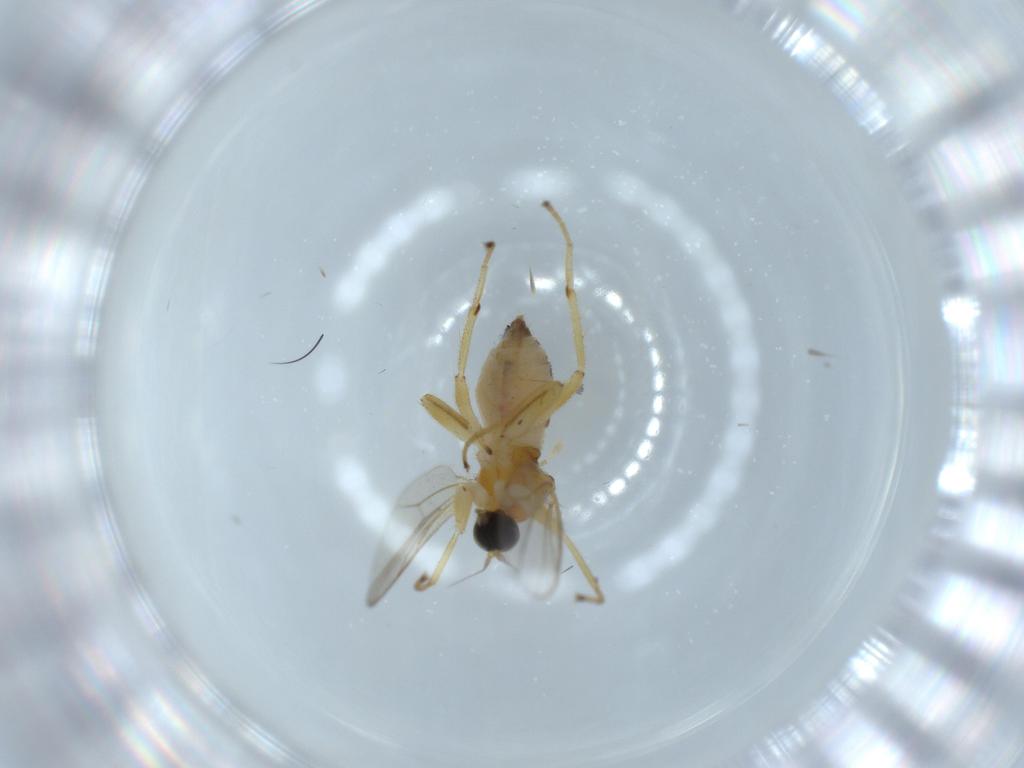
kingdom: Animalia
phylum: Arthropoda
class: Insecta
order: Diptera
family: Hybotidae
